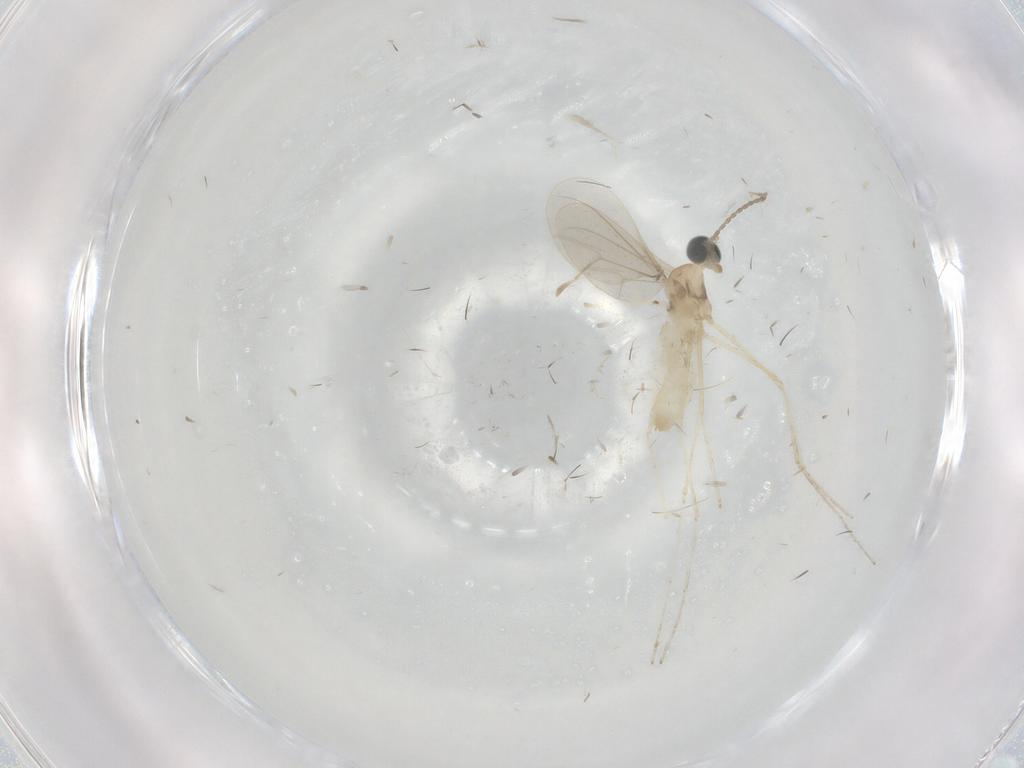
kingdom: Animalia
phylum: Arthropoda
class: Insecta
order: Diptera
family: Cecidomyiidae
